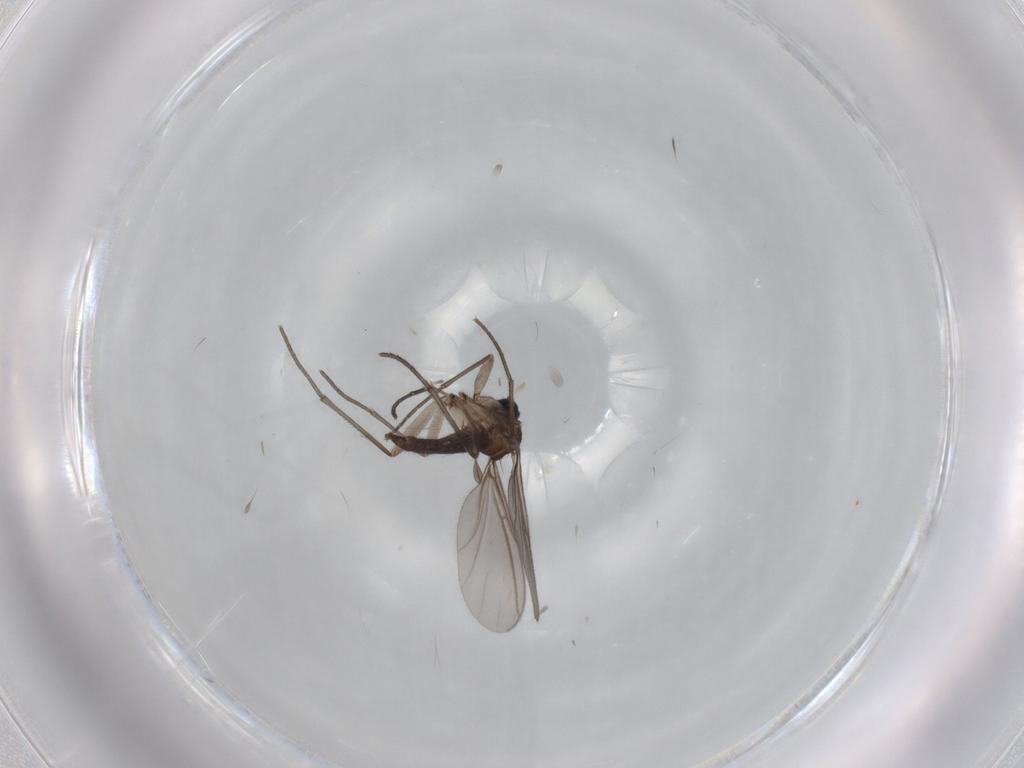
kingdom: Animalia
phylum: Arthropoda
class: Insecta
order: Diptera
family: Sciaridae
